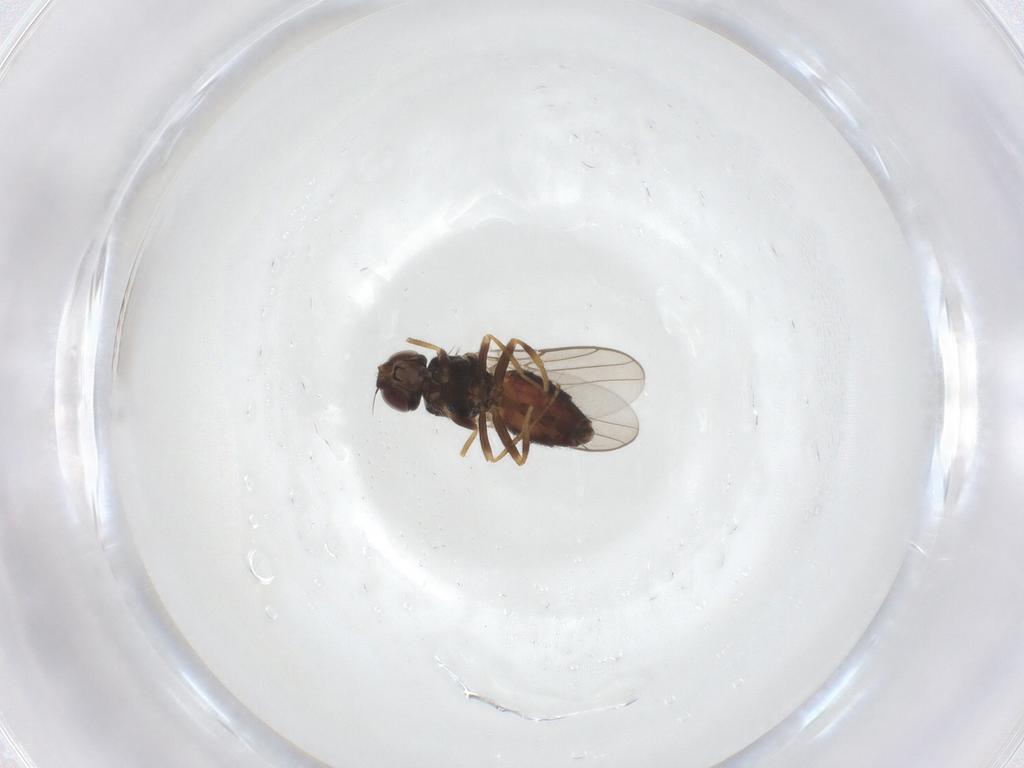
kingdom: Animalia
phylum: Arthropoda
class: Insecta
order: Diptera
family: Chloropidae
